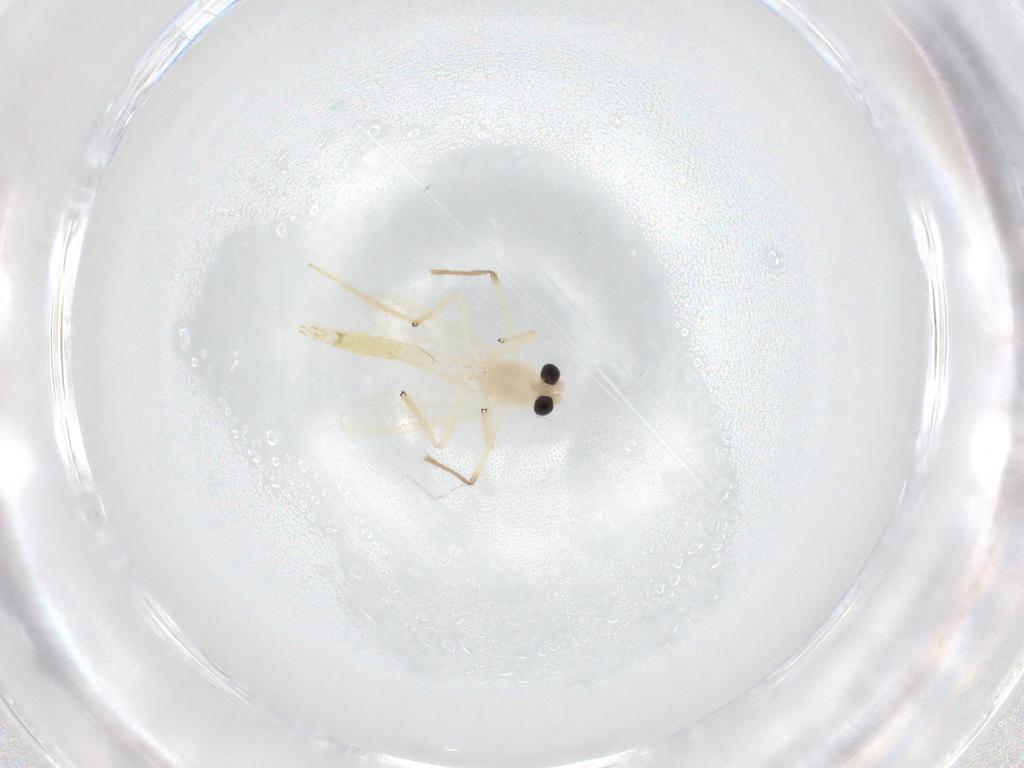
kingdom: Animalia
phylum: Arthropoda
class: Insecta
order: Diptera
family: Cecidomyiidae
